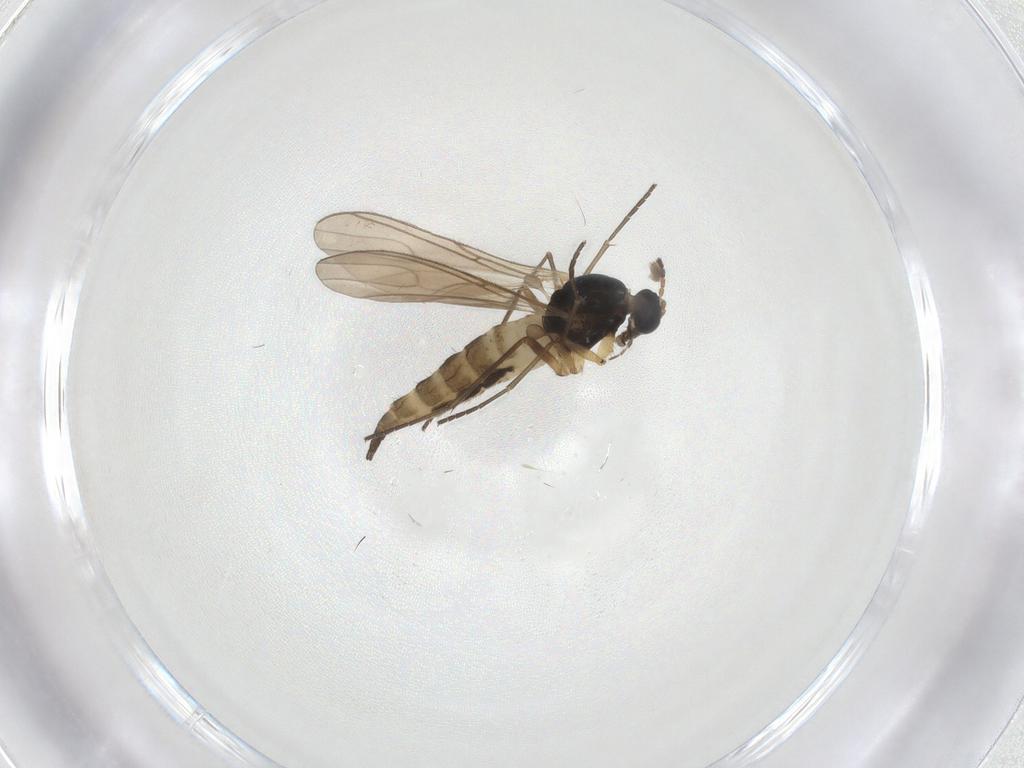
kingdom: Animalia
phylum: Arthropoda
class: Insecta
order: Diptera
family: Sciaridae
